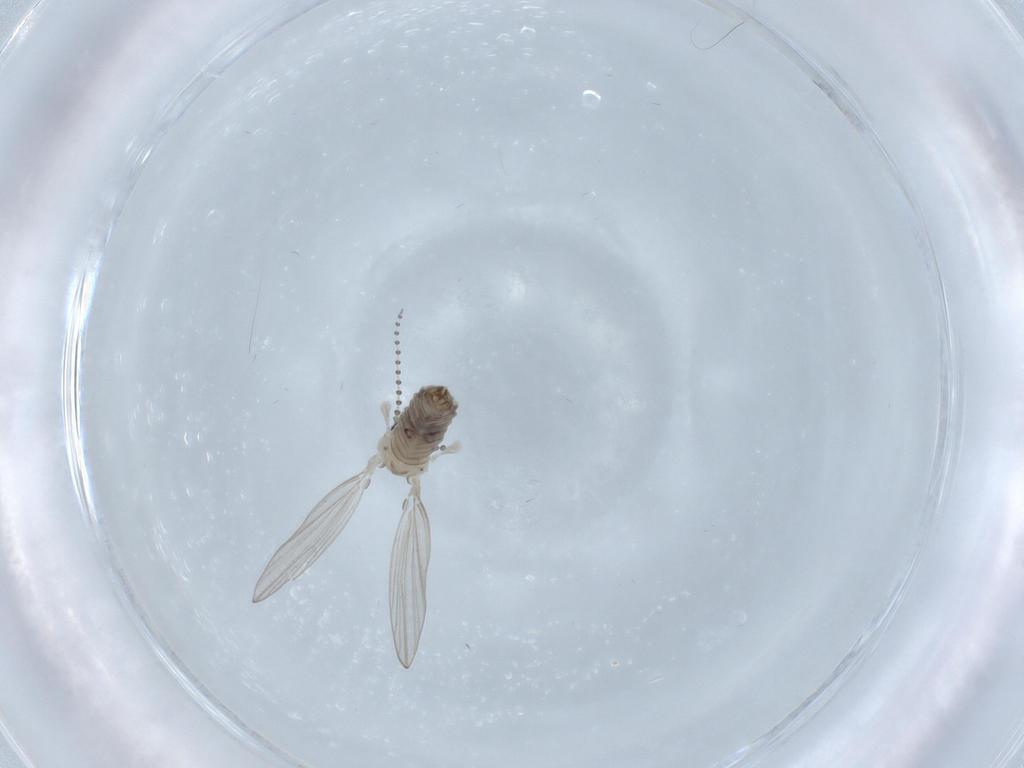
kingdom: Animalia
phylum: Arthropoda
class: Insecta
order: Diptera
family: Psychodidae
